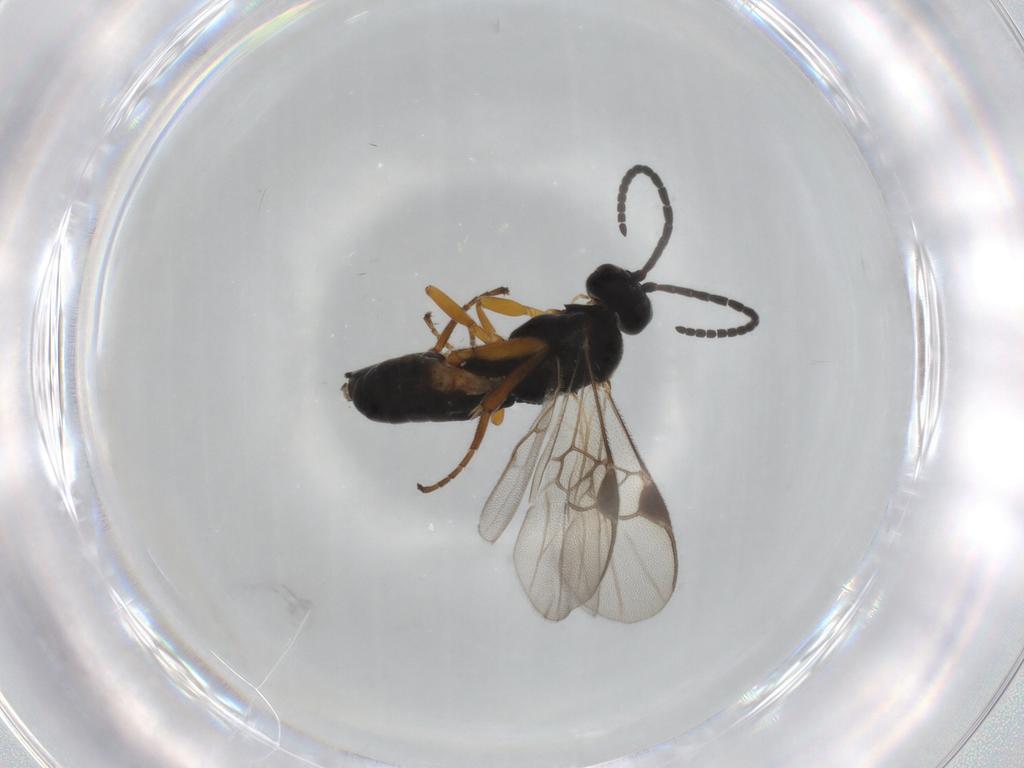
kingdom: Animalia
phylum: Arthropoda
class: Insecta
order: Hymenoptera
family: Braconidae
